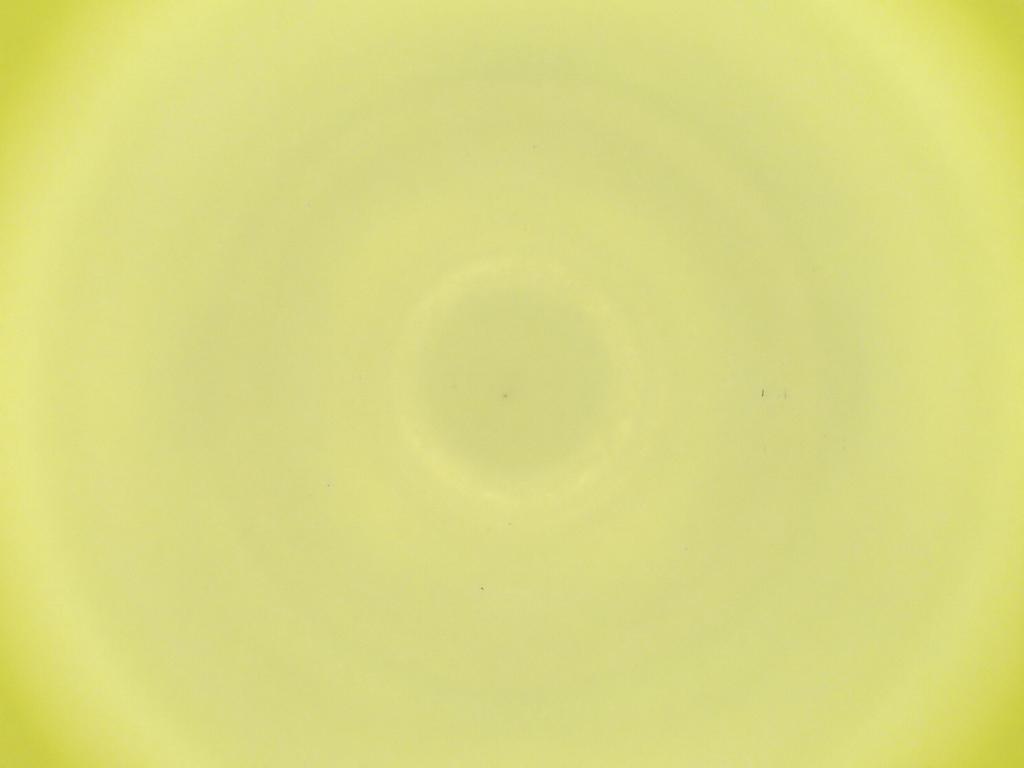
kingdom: Animalia
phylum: Arthropoda
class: Insecta
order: Diptera
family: Cecidomyiidae
